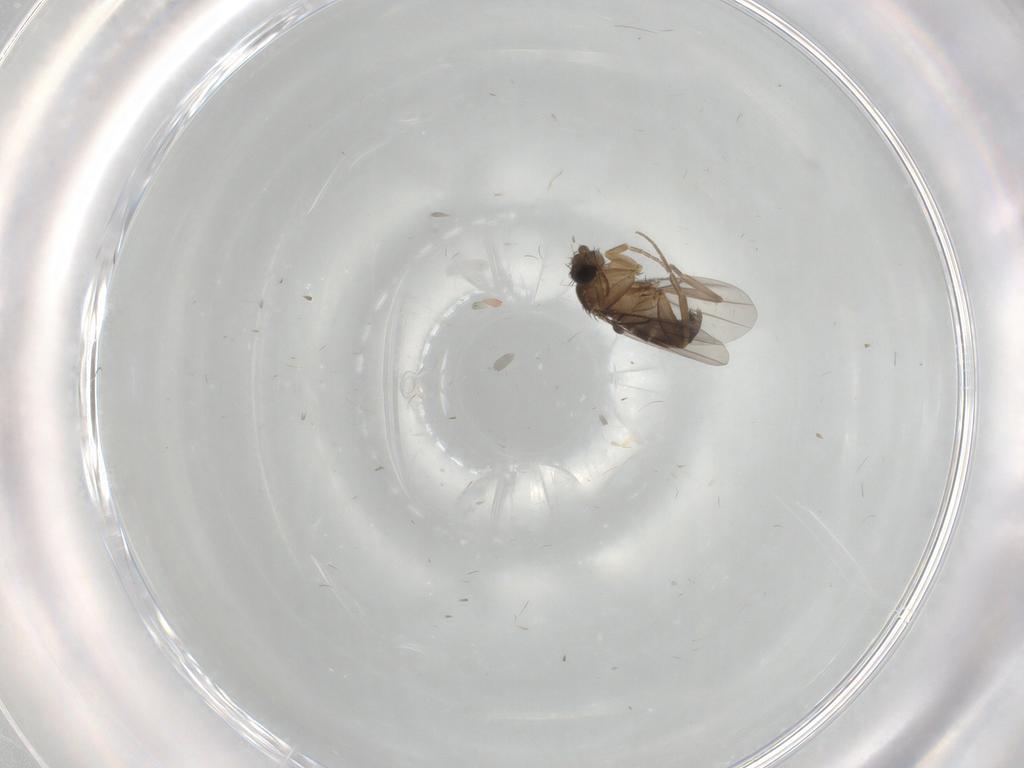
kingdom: Animalia
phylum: Arthropoda
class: Insecta
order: Diptera
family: Sciaridae
